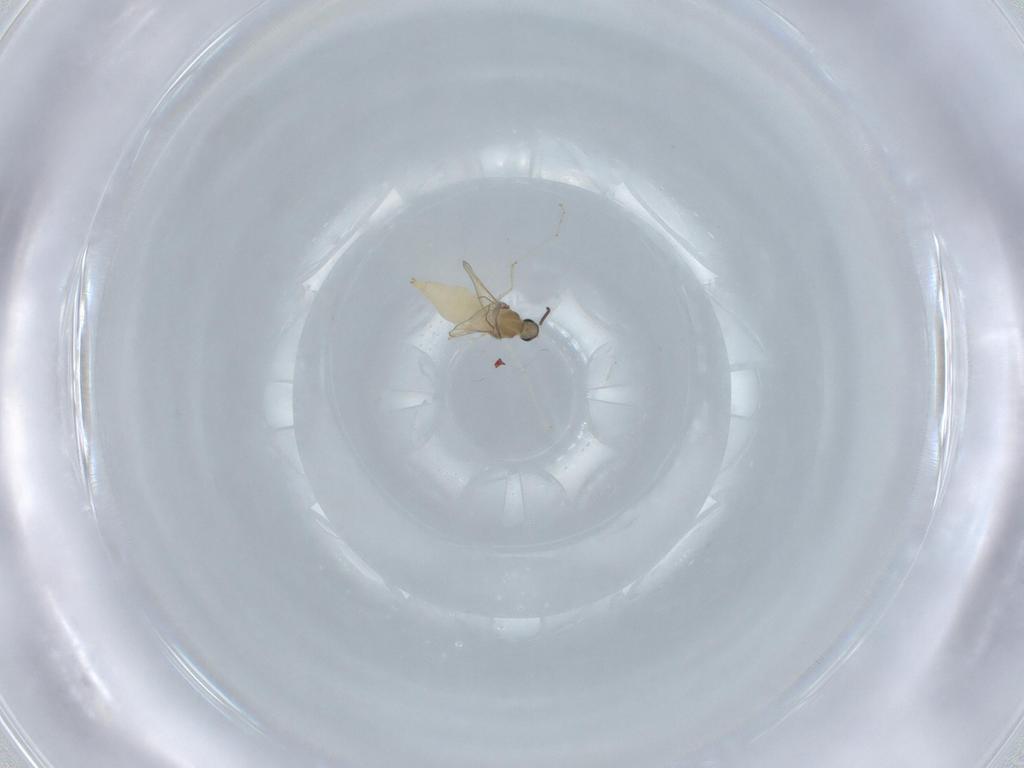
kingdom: Animalia
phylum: Arthropoda
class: Insecta
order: Diptera
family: Cecidomyiidae
